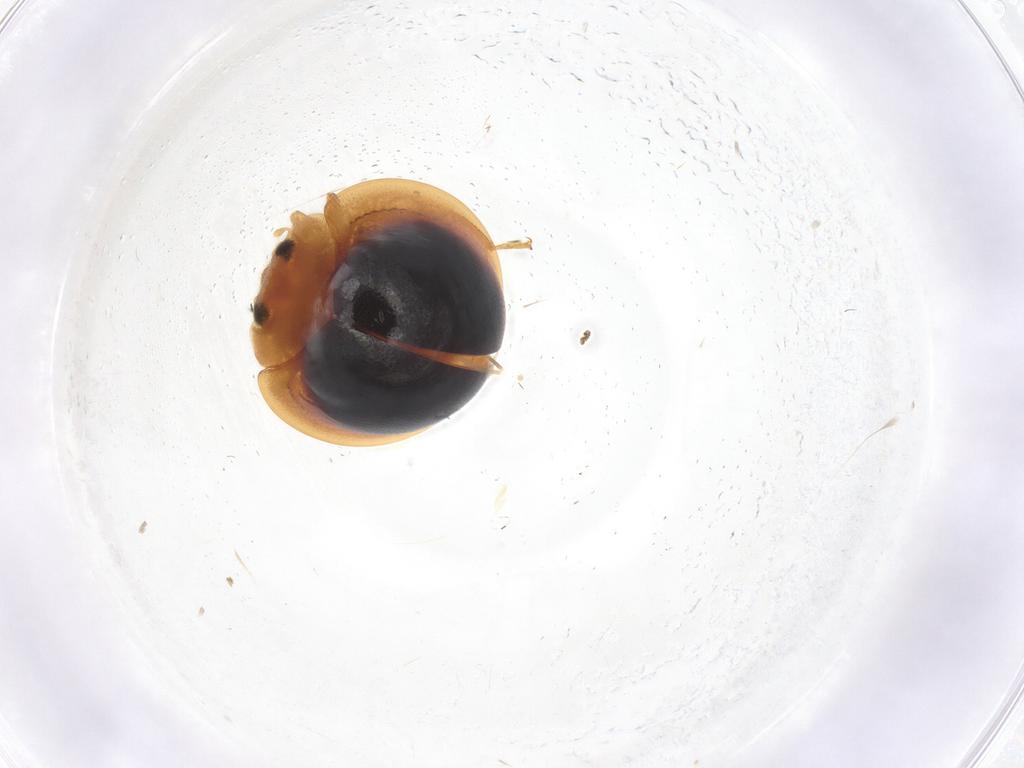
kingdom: Animalia
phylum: Arthropoda
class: Insecta
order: Coleoptera
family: Coccinellidae
